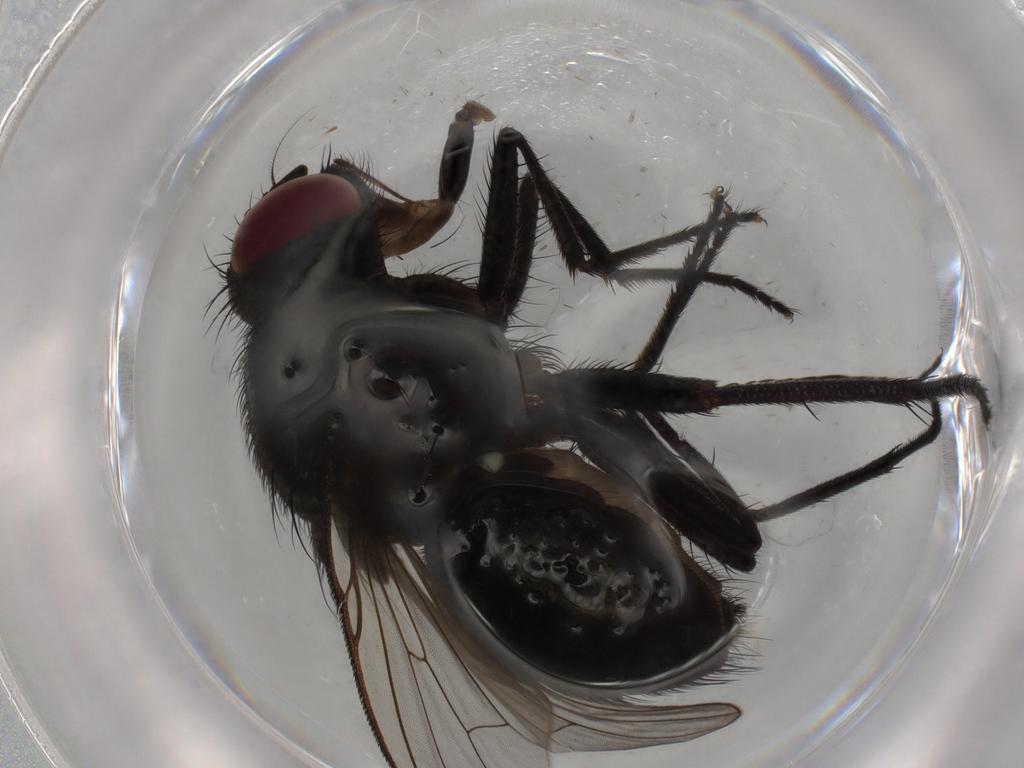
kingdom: Animalia
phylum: Arthropoda
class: Insecta
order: Diptera
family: Muscidae
